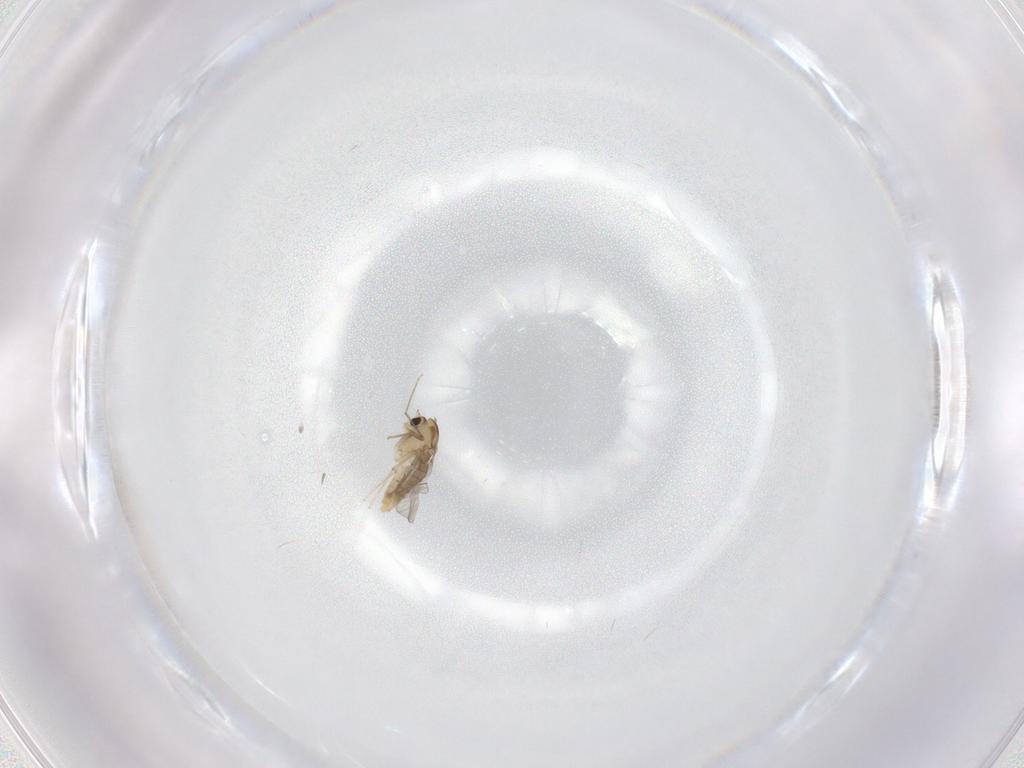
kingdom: Animalia
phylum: Arthropoda
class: Insecta
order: Diptera
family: Chironomidae
